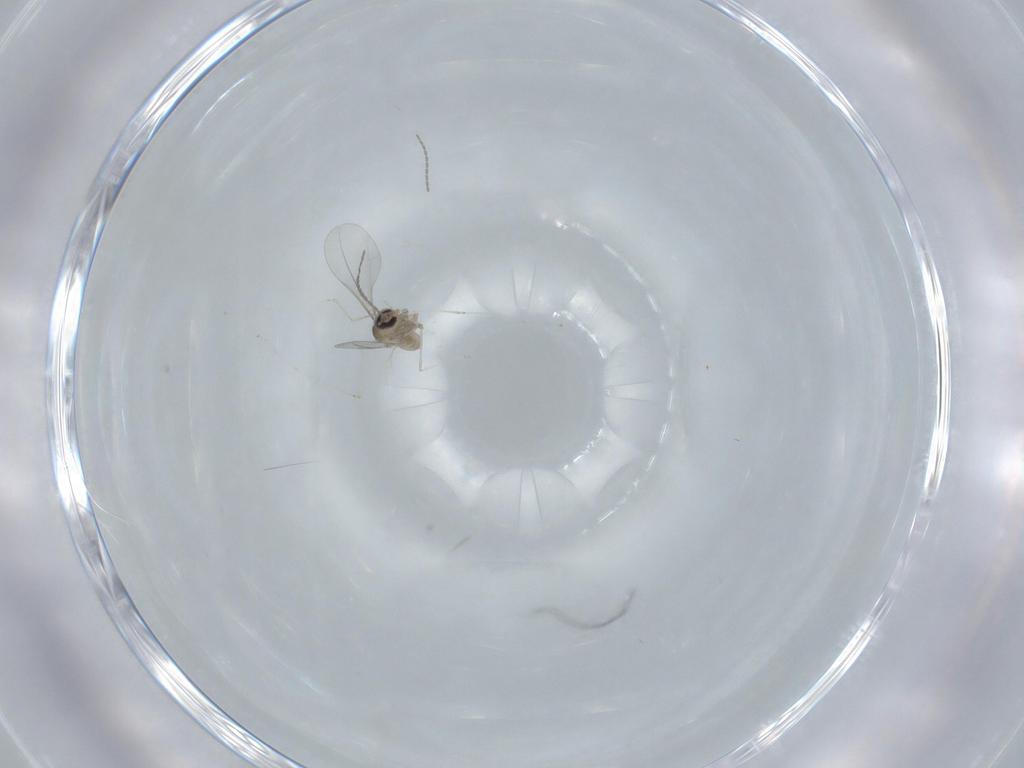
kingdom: Animalia
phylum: Arthropoda
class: Insecta
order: Diptera
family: Cecidomyiidae
